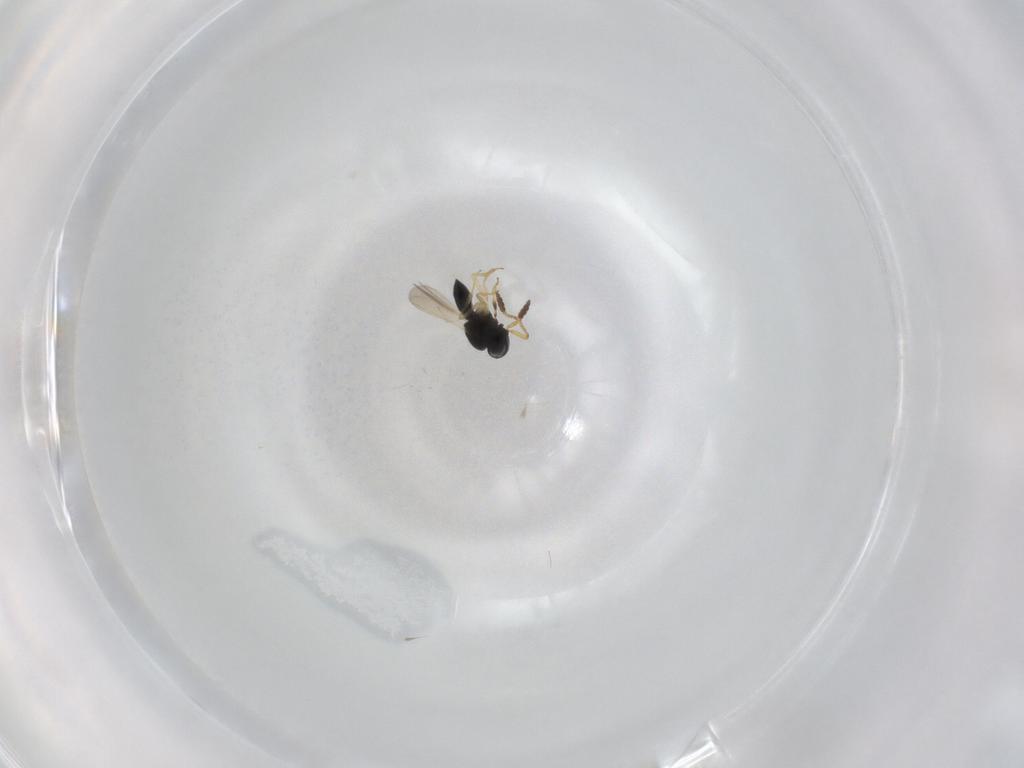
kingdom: Animalia
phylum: Arthropoda
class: Insecta
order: Hymenoptera
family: Scelionidae
